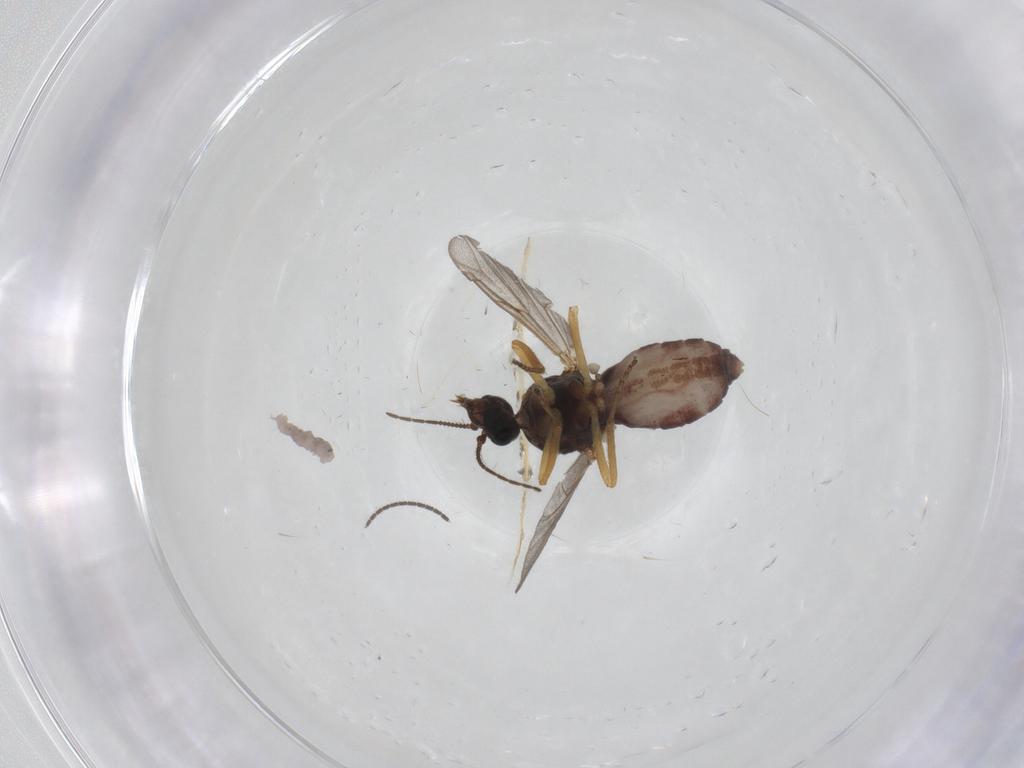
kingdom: Animalia
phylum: Arthropoda
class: Insecta
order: Diptera
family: Ceratopogonidae
